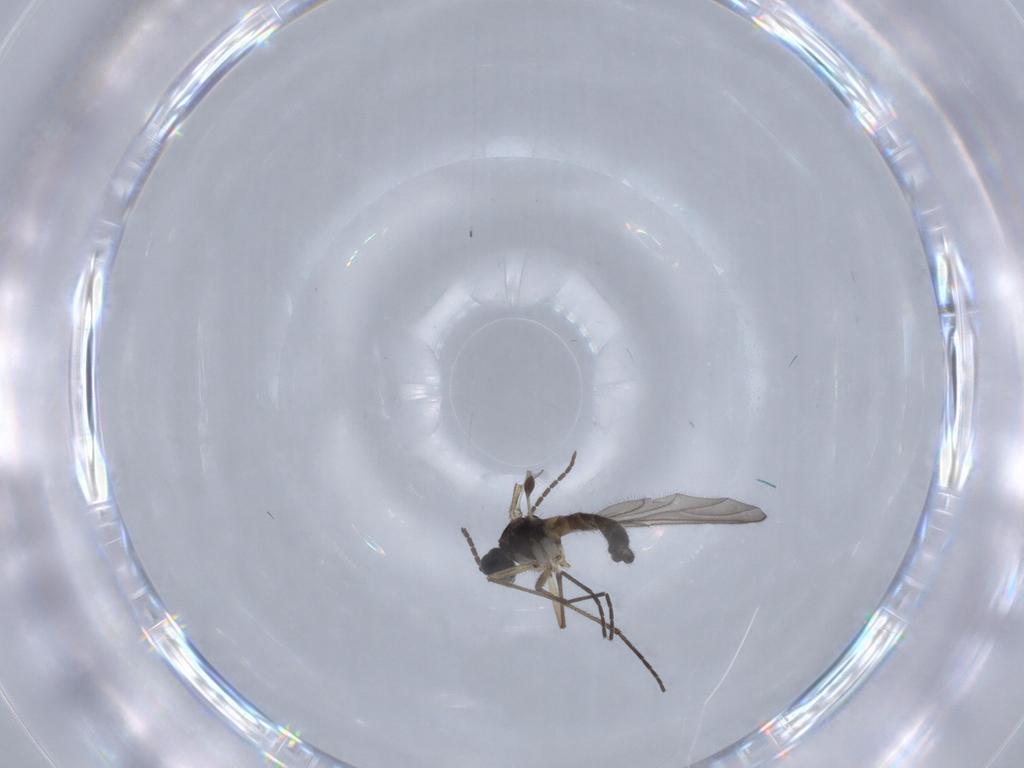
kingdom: Animalia
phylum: Arthropoda
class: Insecta
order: Diptera
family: Sciaridae
